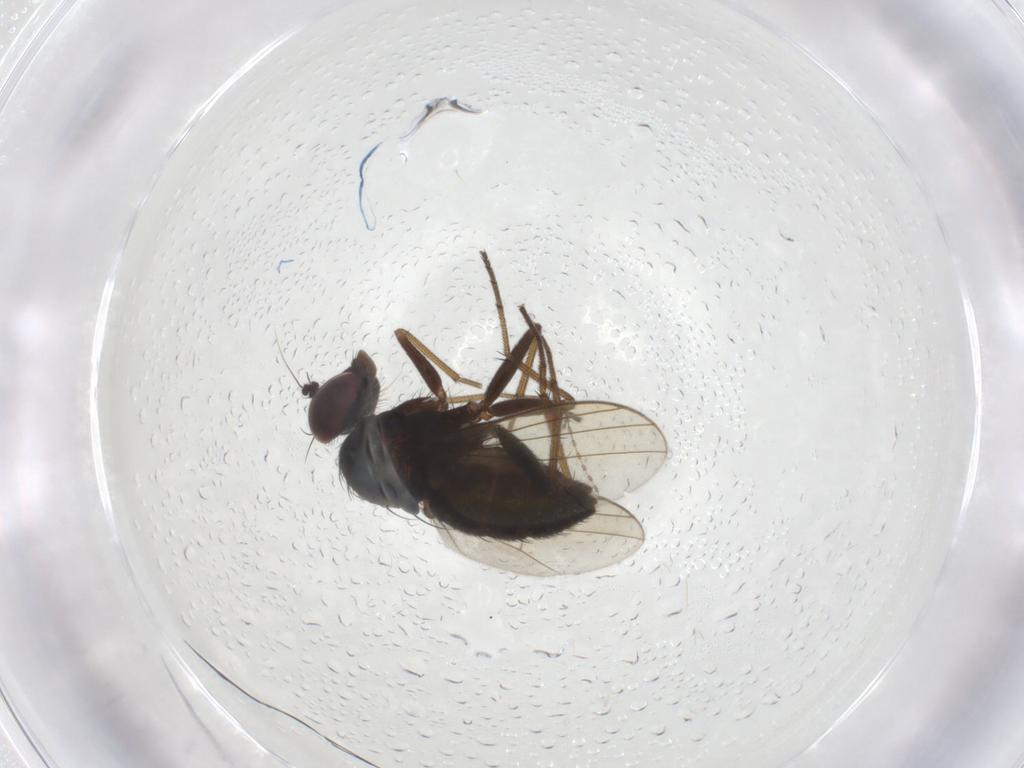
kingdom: Animalia
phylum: Arthropoda
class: Insecta
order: Diptera
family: Dolichopodidae
